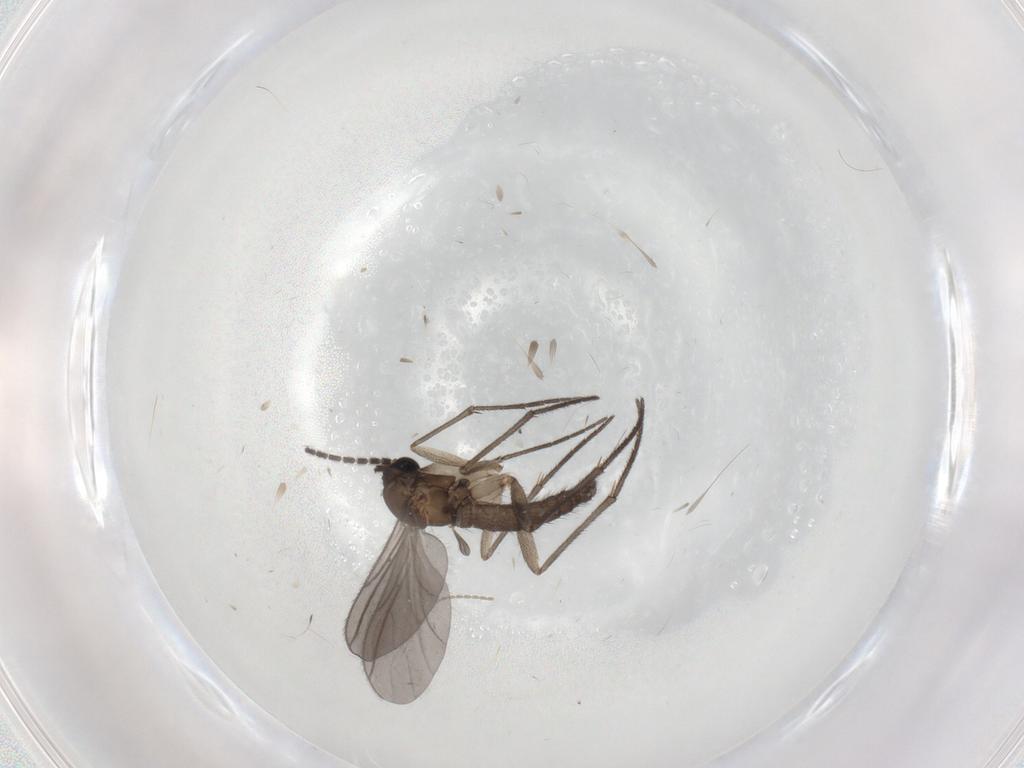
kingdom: Animalia
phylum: Arthropoda
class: Insecta
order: Diptera
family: Sciaridae
